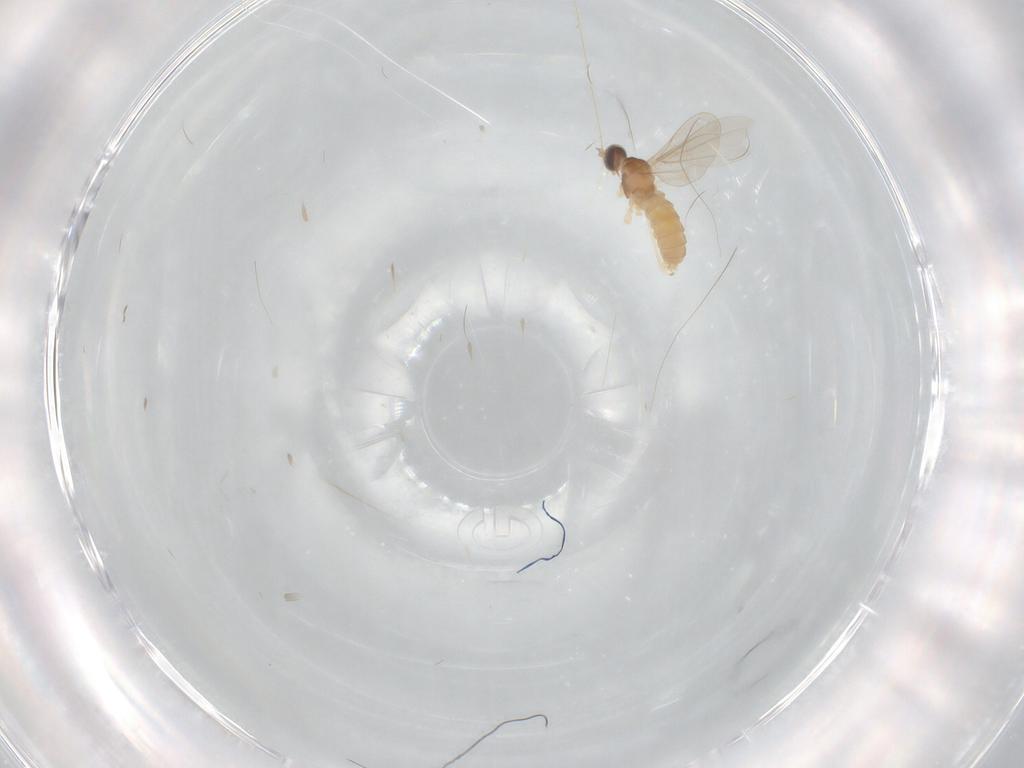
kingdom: Animalia
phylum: Arthropoda
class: Insecta
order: Diptera
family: Cecidomyiidae
